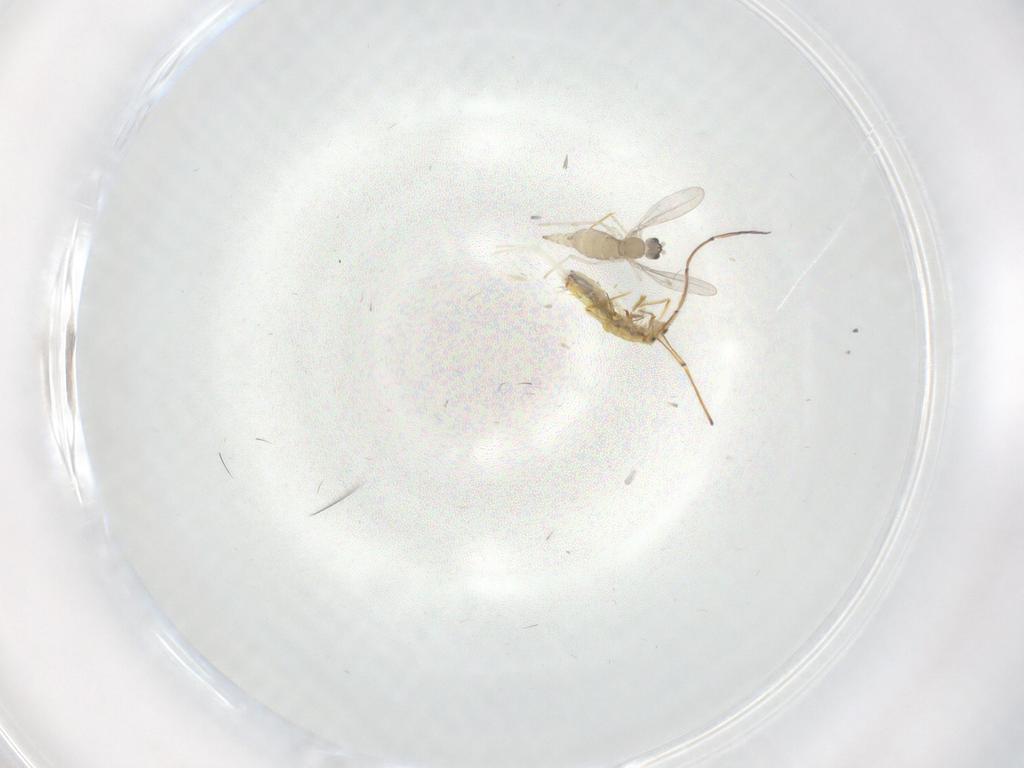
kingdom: Animalia
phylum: Arthropoda
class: Insecta
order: Diptera
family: Cecidomyiidae
